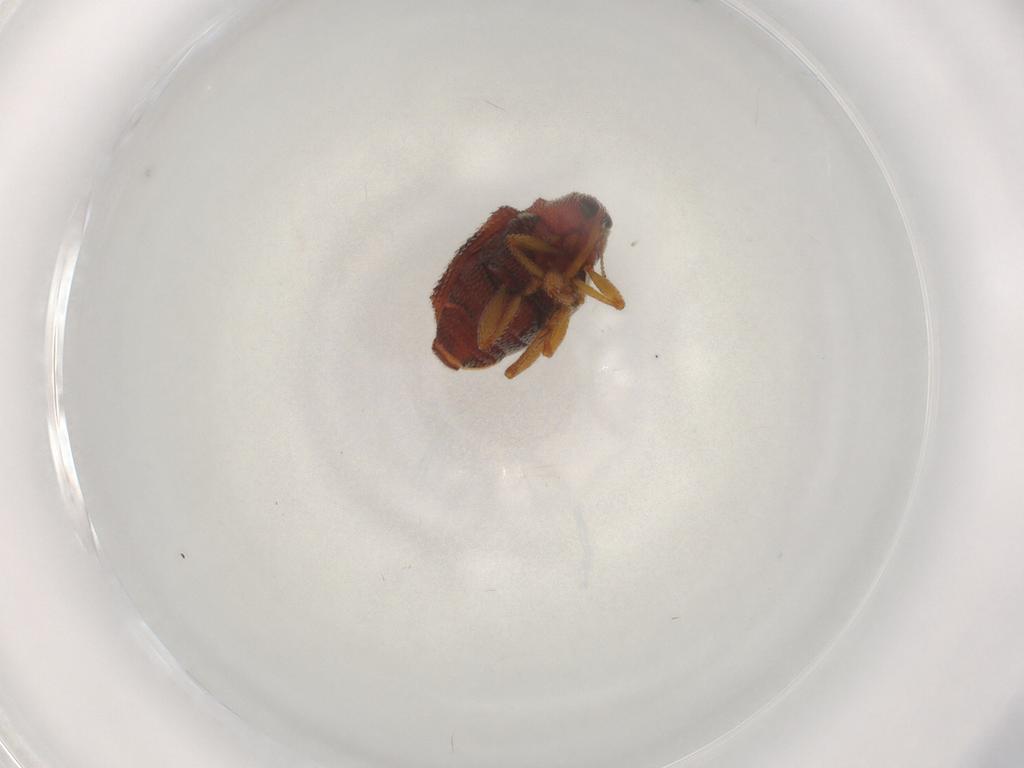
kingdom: Animalia
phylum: Arthropoda
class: Insecta
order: Coleoptera
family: Curculionidae
